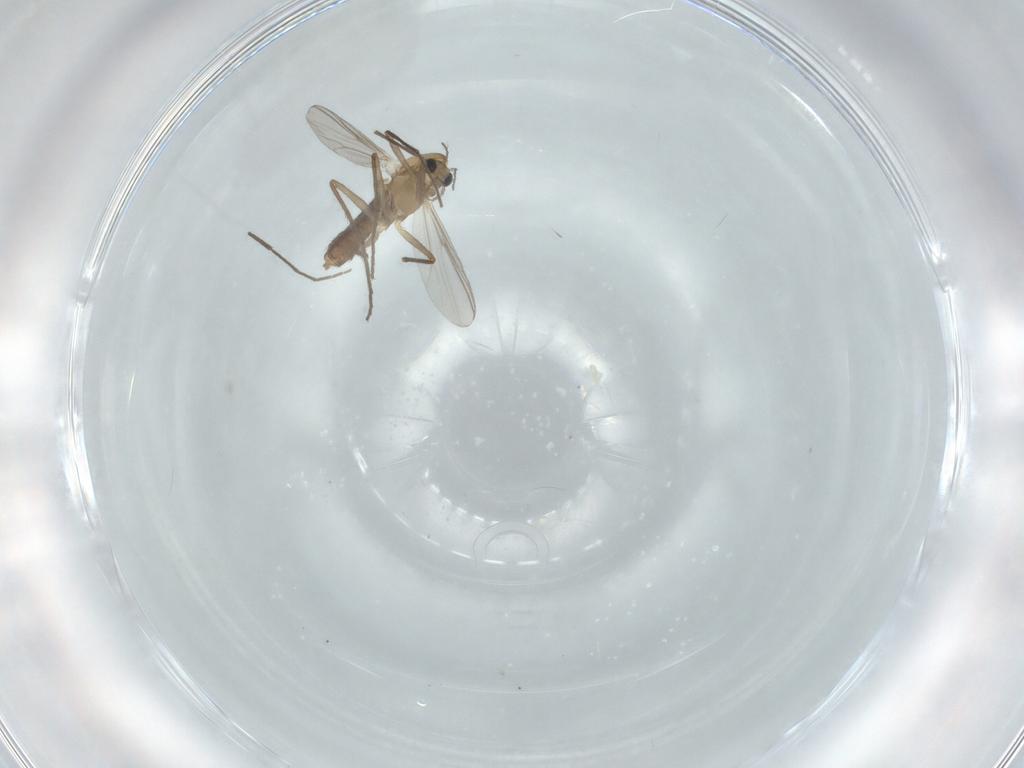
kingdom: Animalia
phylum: Arthropoda
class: Insecta
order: Diptera
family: Chironomidae
